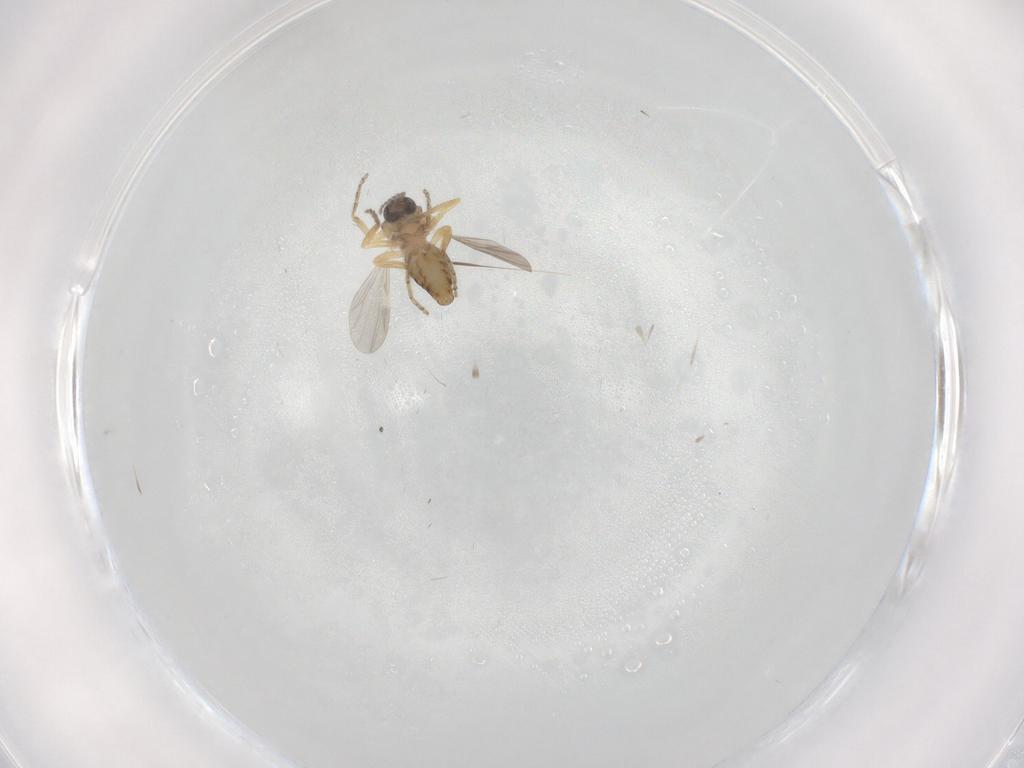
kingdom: Animalia
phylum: Arthropoda
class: Insecta
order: Diptera
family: Ceratopogonidae
